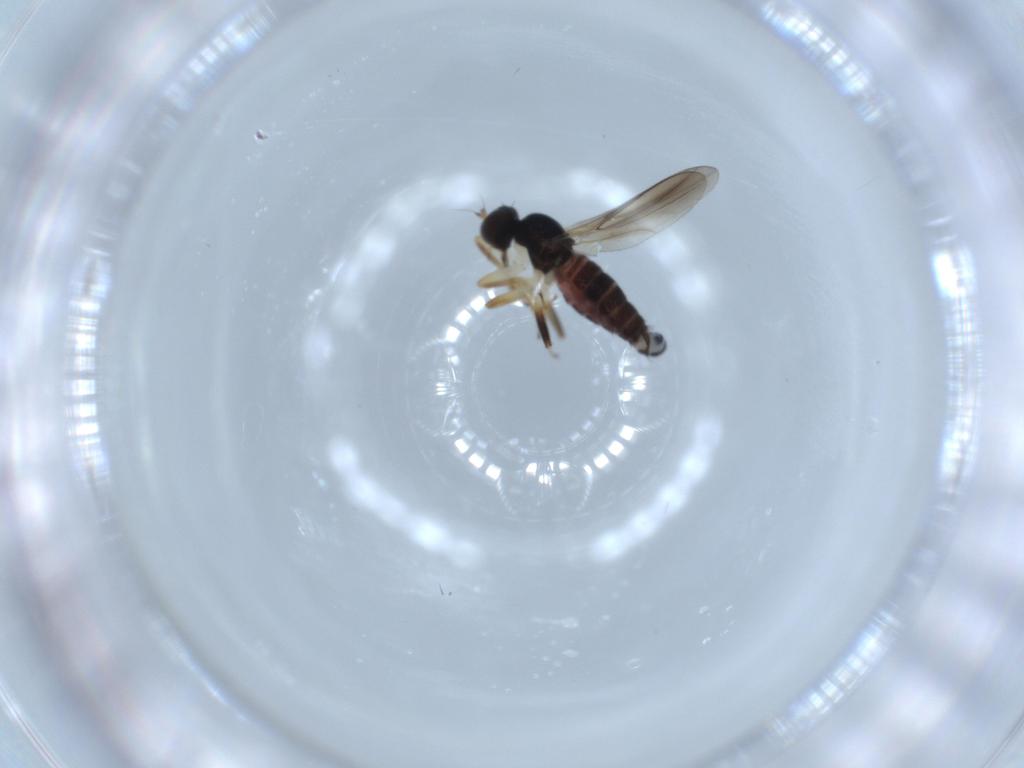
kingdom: Animalia
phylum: Arthropoda
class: Insecta
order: Diptera
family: Hybotidae
